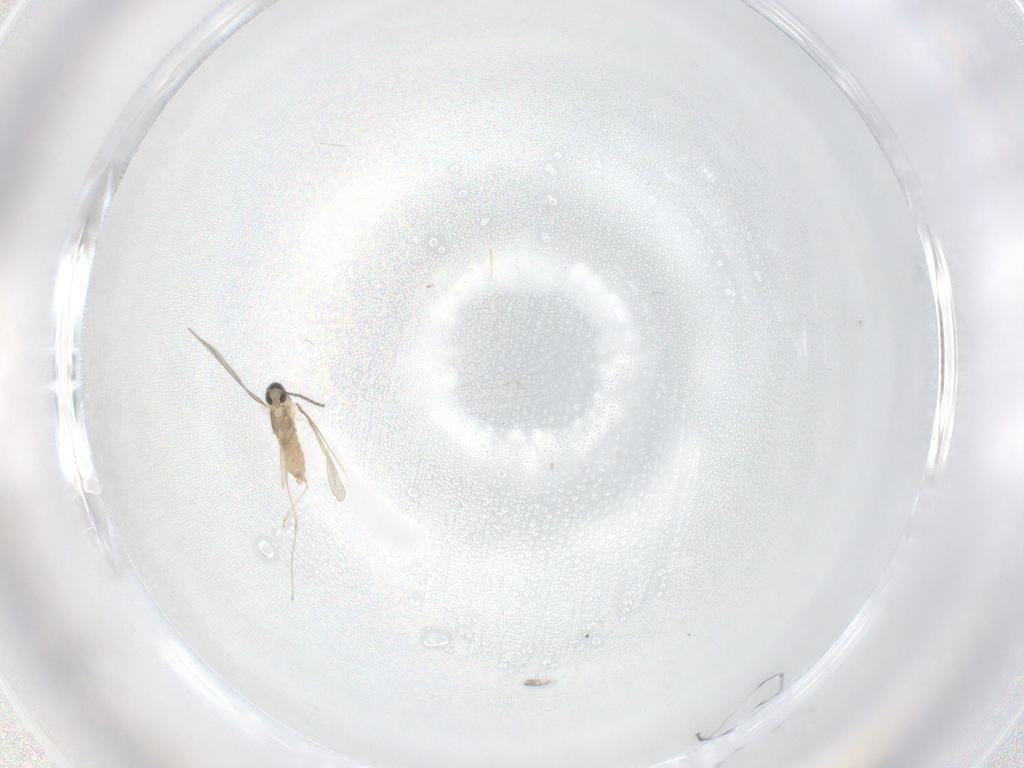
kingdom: Animalia
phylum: Arthropoda
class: Insecta
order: Diptera
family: Cecidomyiidae
